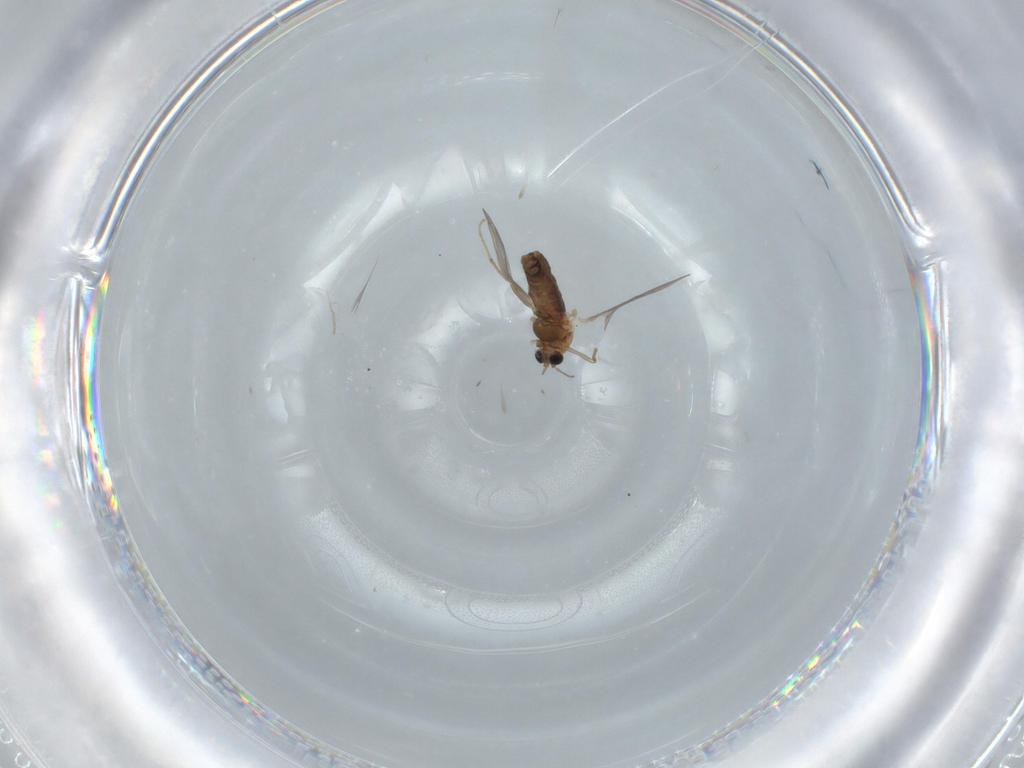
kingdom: Animalia
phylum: Arthropoda
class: Insecta
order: Diptera
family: Chironomidae
